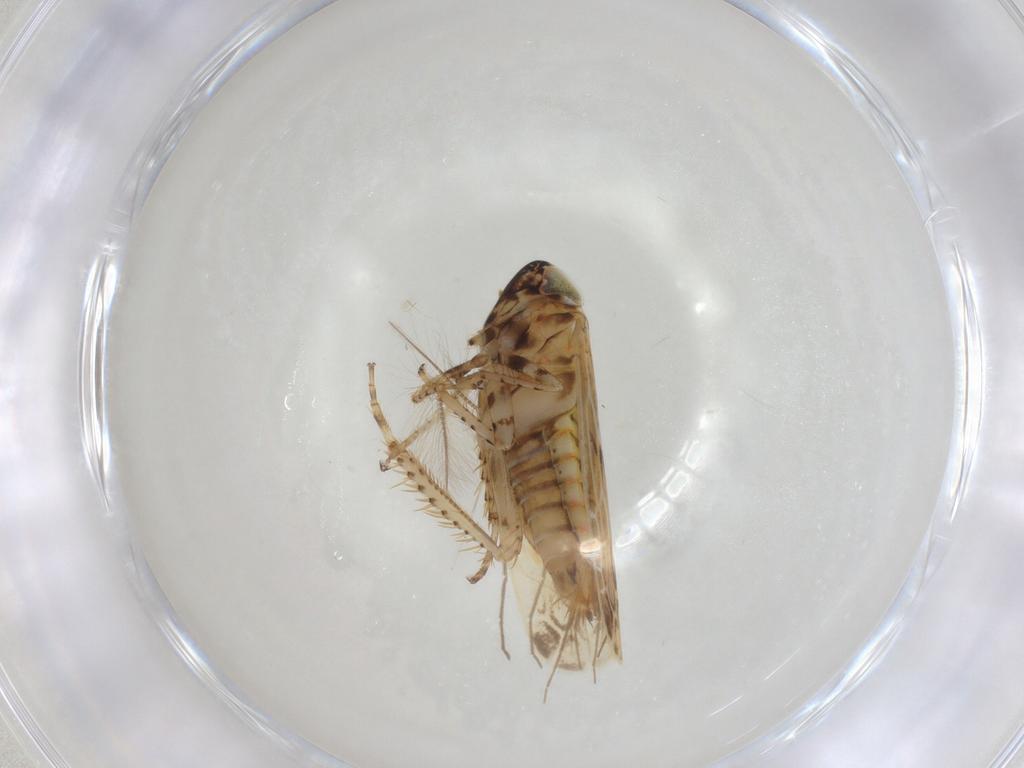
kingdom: Animalia
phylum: Arthropoda
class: Insecta
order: Hemiptera
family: Cicadellidae
